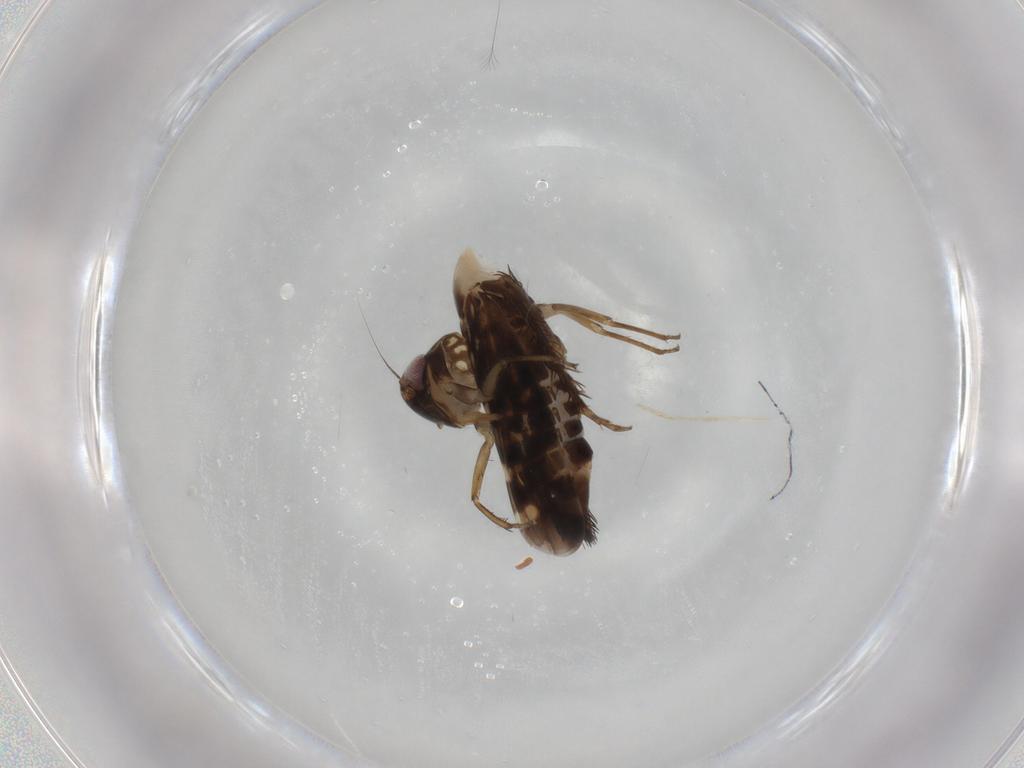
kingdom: Animalia
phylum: Arthropoda
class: Insecta
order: Hemiptera
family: Cicadellidae
